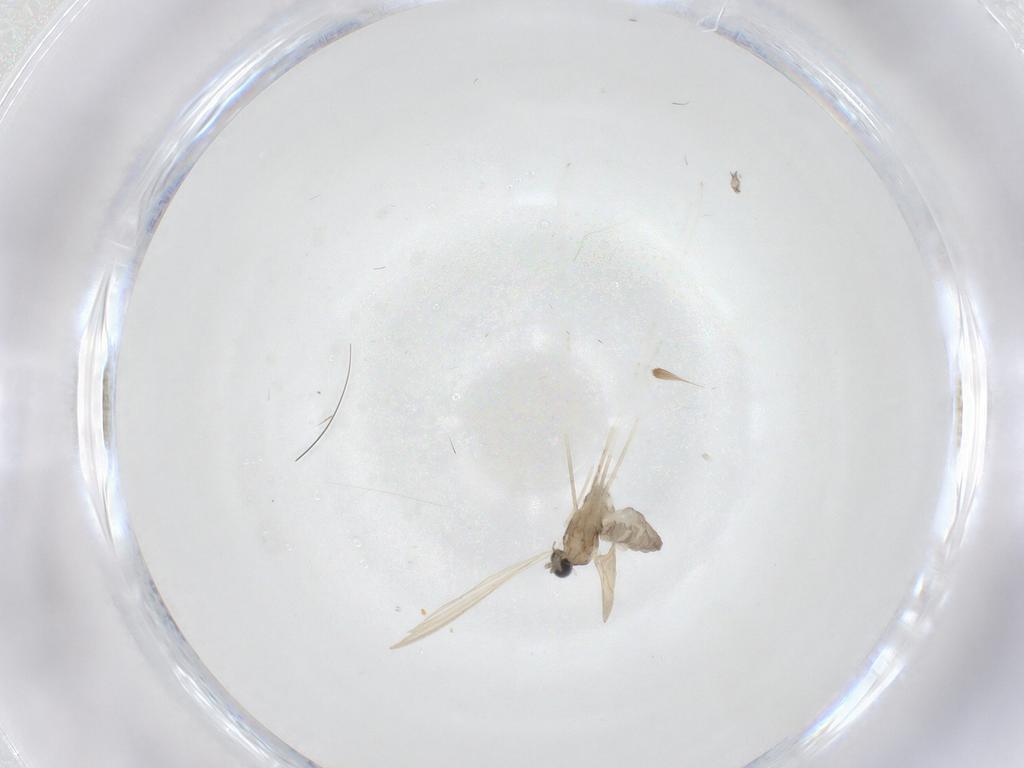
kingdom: Animalia
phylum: Arthropoda
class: Insecta
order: Diptera
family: Cecidomyiidae
